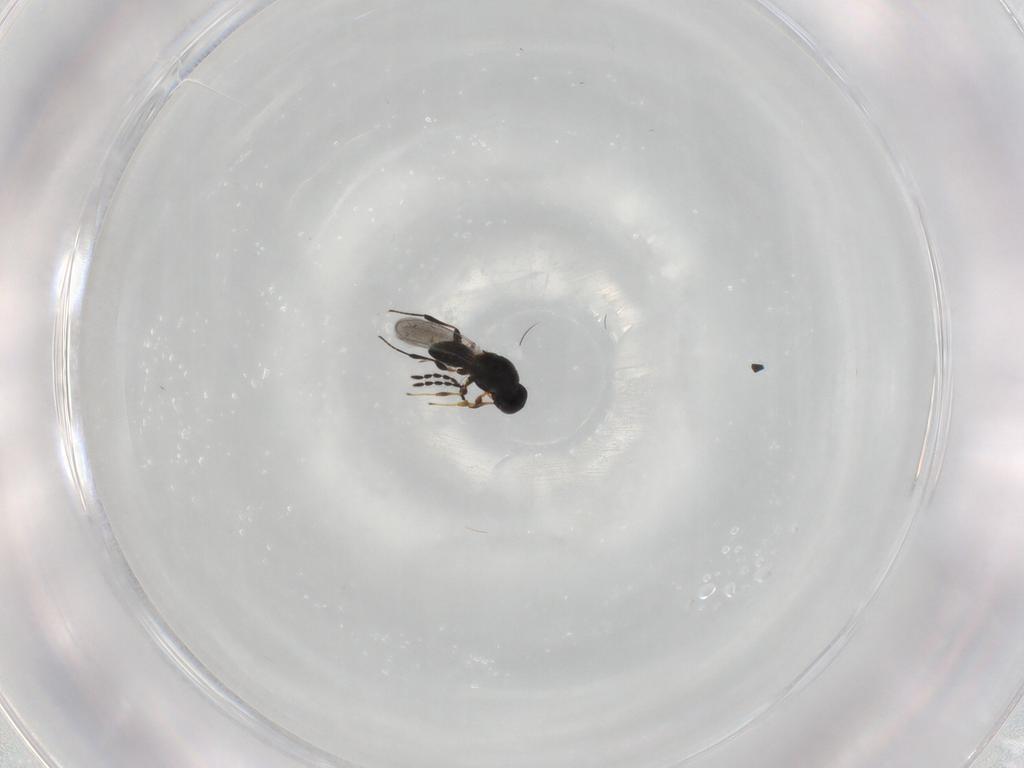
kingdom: Animalia
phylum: Arthropoda
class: Insecta
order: Hymenoptera
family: Platygastridae
